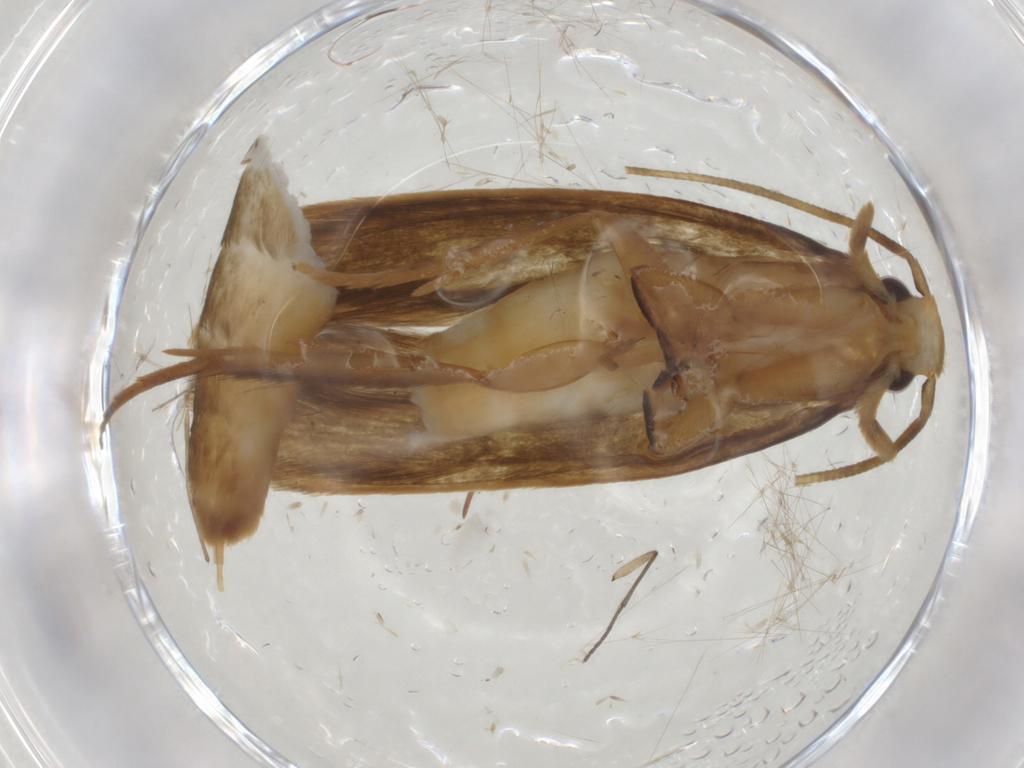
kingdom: Animalia
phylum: Arthropoda
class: Insecta
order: Lepidoptera
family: Tineidae
